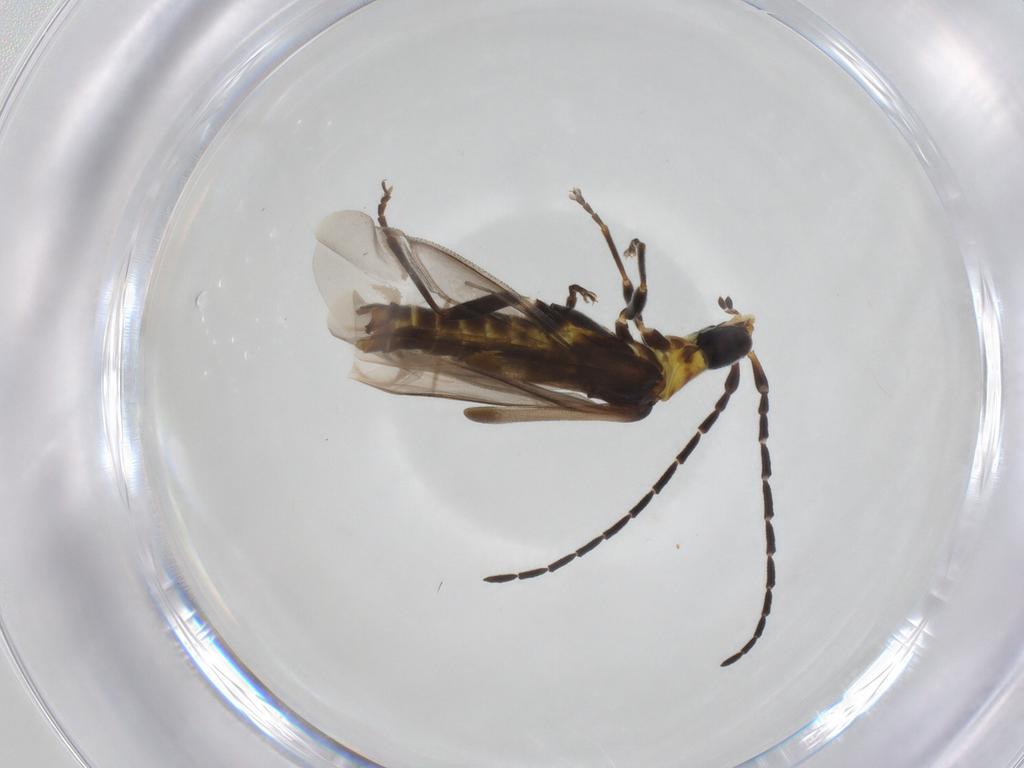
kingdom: Animalia
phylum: Arthropoda
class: Insecta
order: Coleoptera
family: Cantharidae
